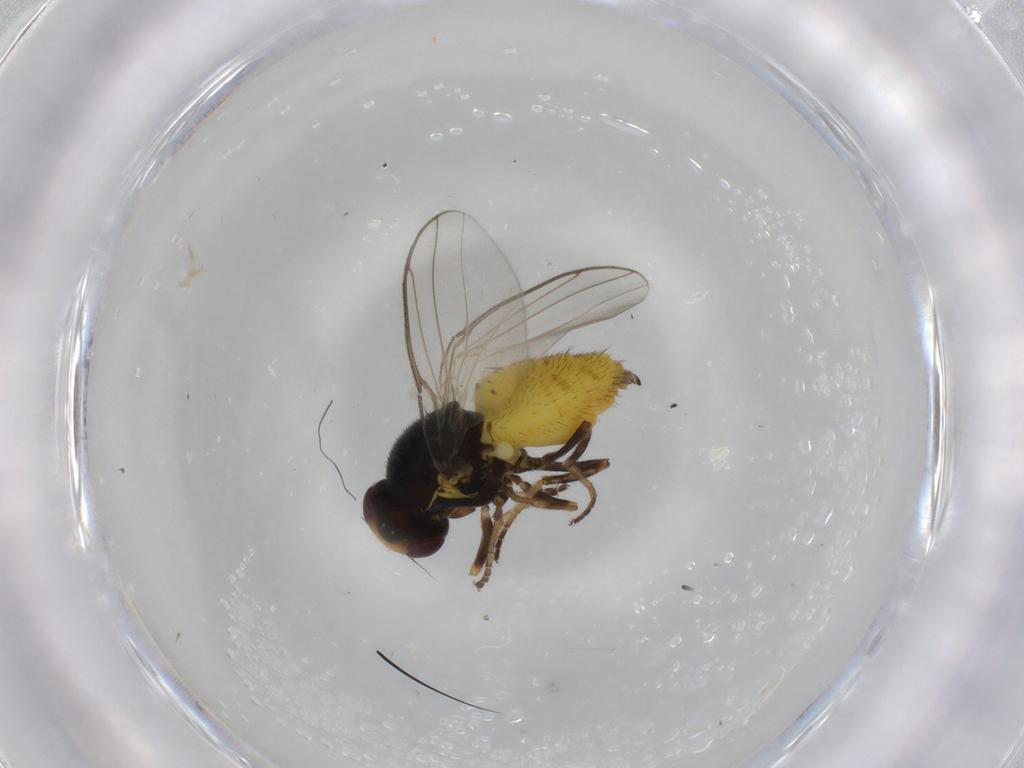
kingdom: Animalia
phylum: Arthropoda
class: Insecta
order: Diptera
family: Chloropidae
